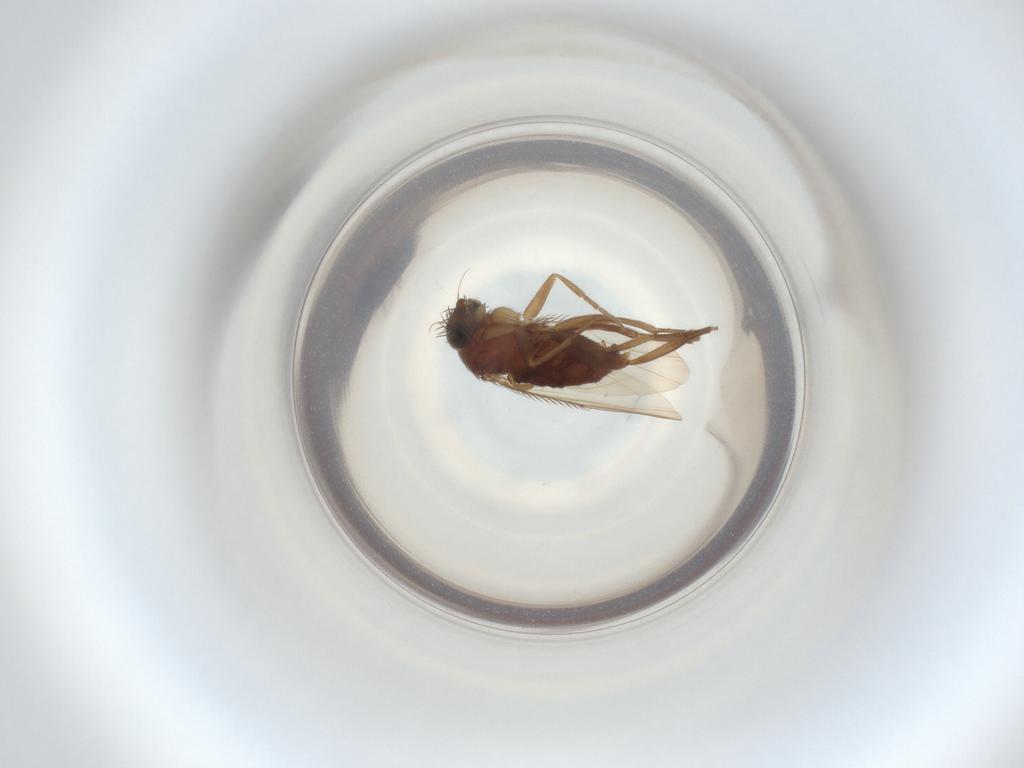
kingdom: Animalia
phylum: Arthropoda
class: Insecta
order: Diptera
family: Phoridae
